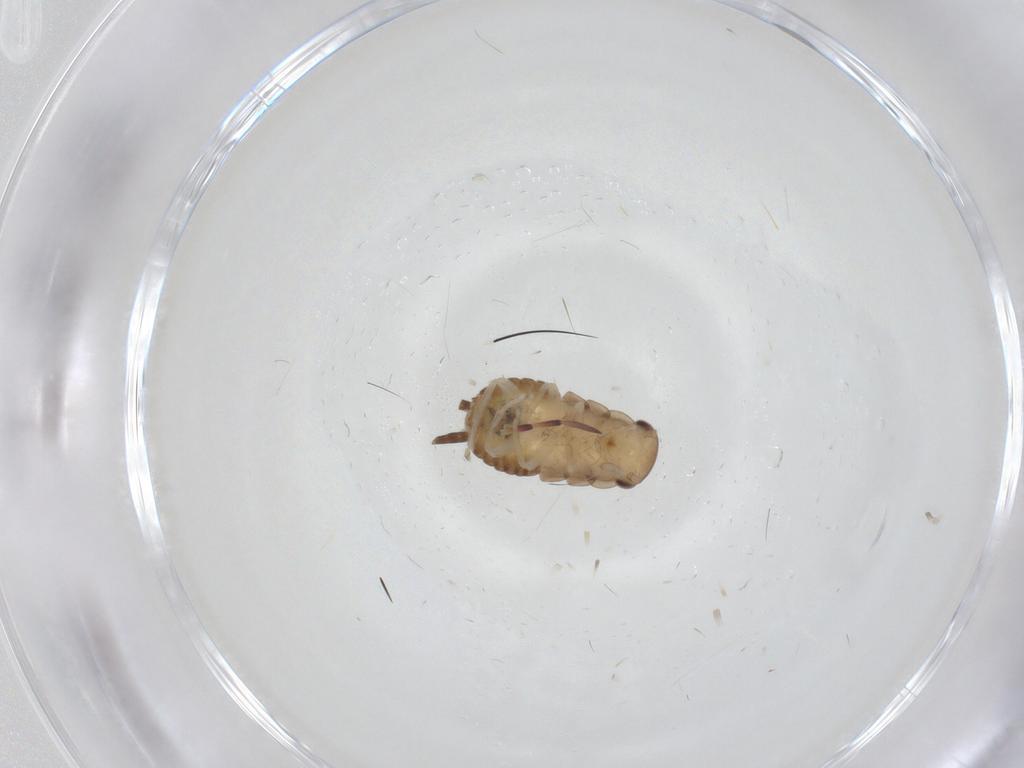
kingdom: Animalia
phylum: Arthropoda
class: Insecta
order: Blattodea
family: Ectobiidae
